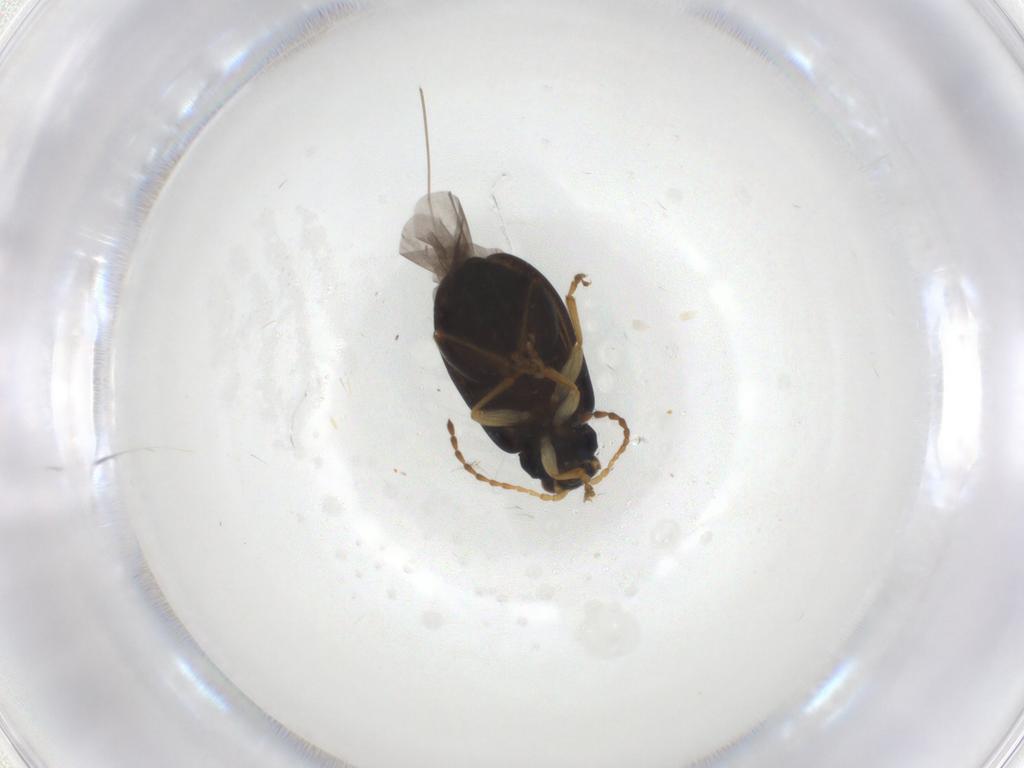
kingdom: Animalia
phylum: Arthropoda
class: Insecta
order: Coleoptera
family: Chrysomelidae
